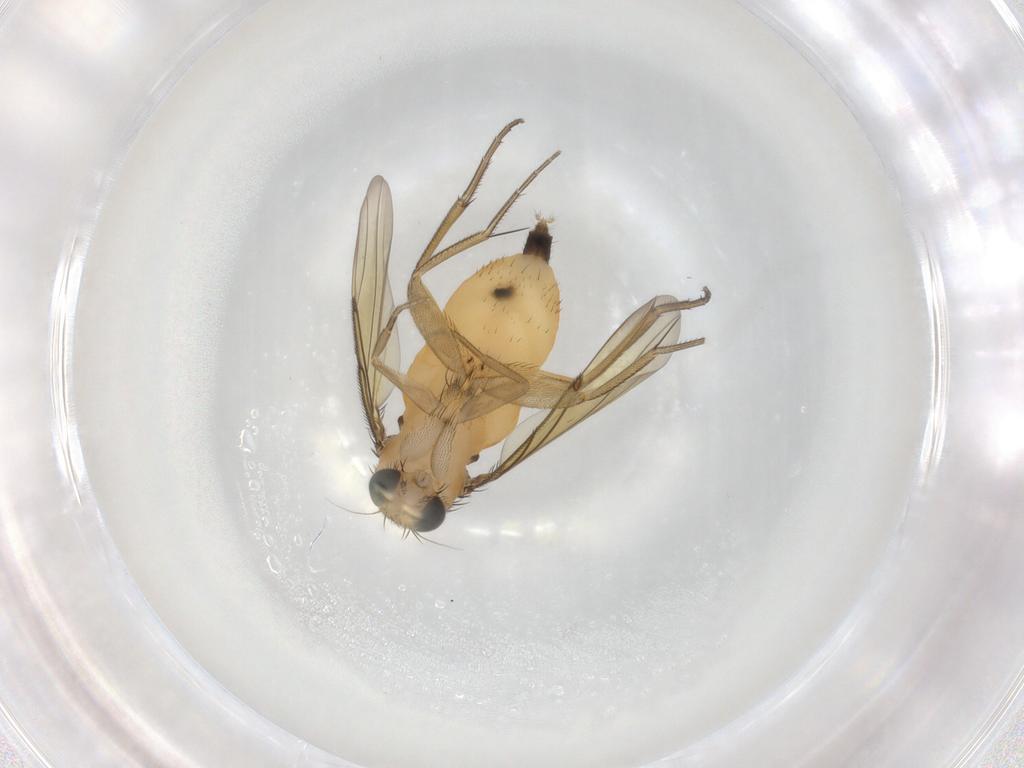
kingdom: Animalia
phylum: Arthropoda
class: Insecta
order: Diptera
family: Phoridae
